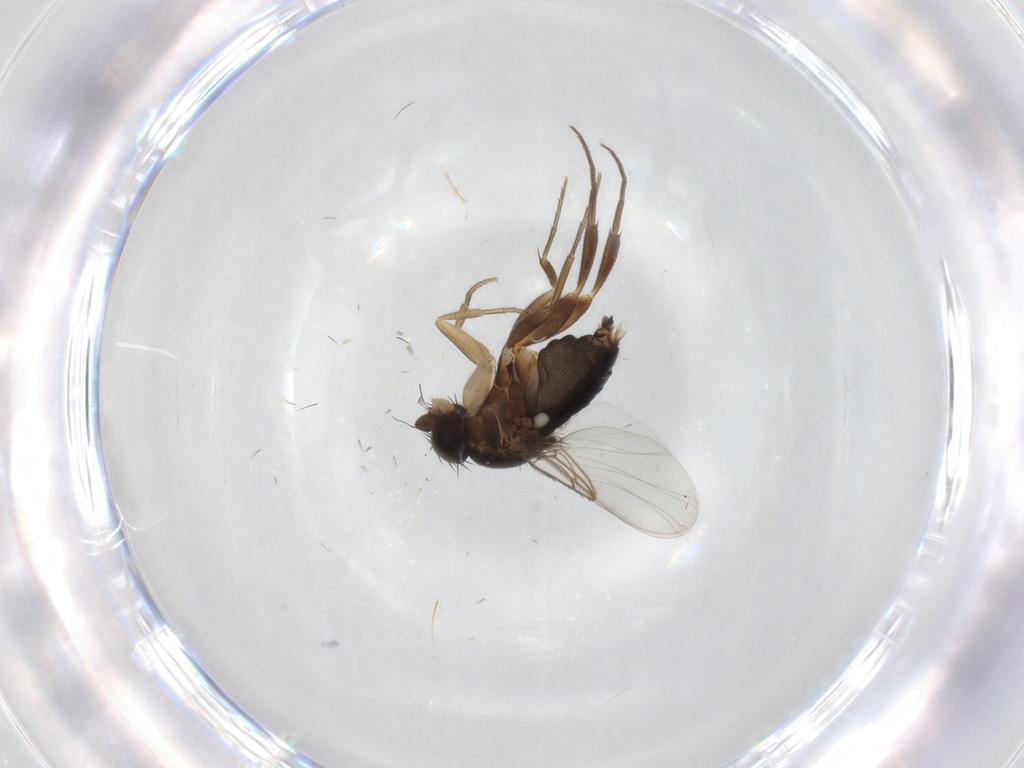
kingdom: Animalia
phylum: Arthropoda
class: Insecta
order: Diptera
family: Phoridae
